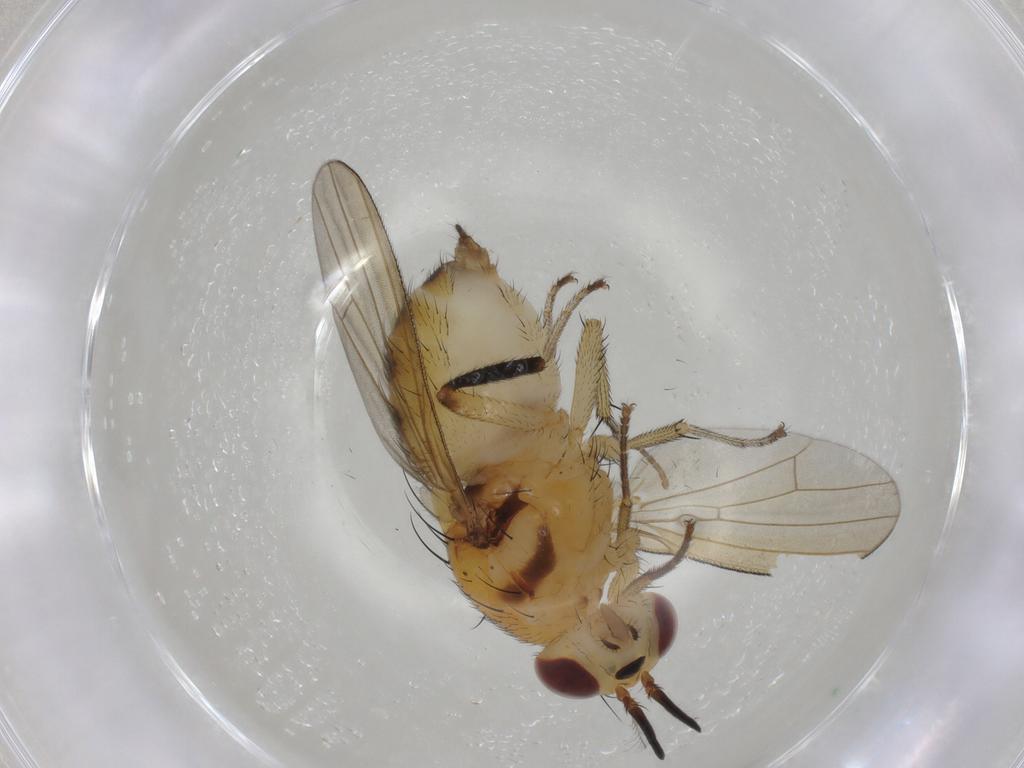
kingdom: Animalia
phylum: Arthropoda
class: Insecta
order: Diptera
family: Lauxaniidae
